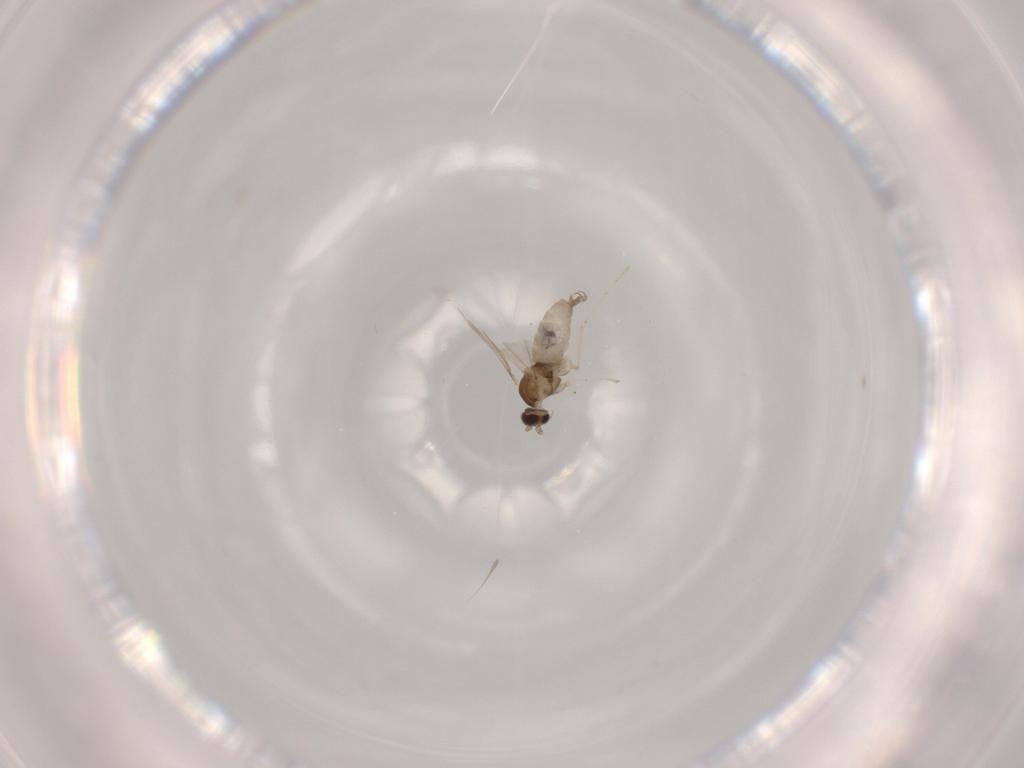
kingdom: Animalia
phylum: Arthropoda
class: Insecta
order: Diptera
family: Cecidomyiidae
